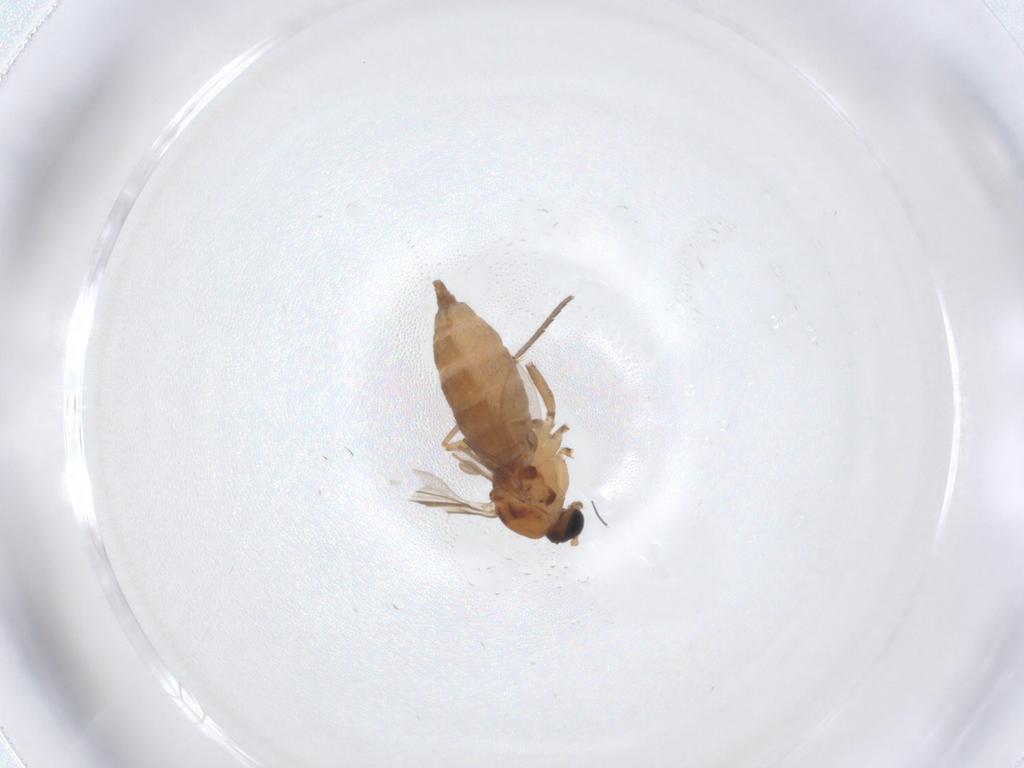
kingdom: Animalia
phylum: Arthropoda
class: Insecta
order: Diptera
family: Sciaridae
